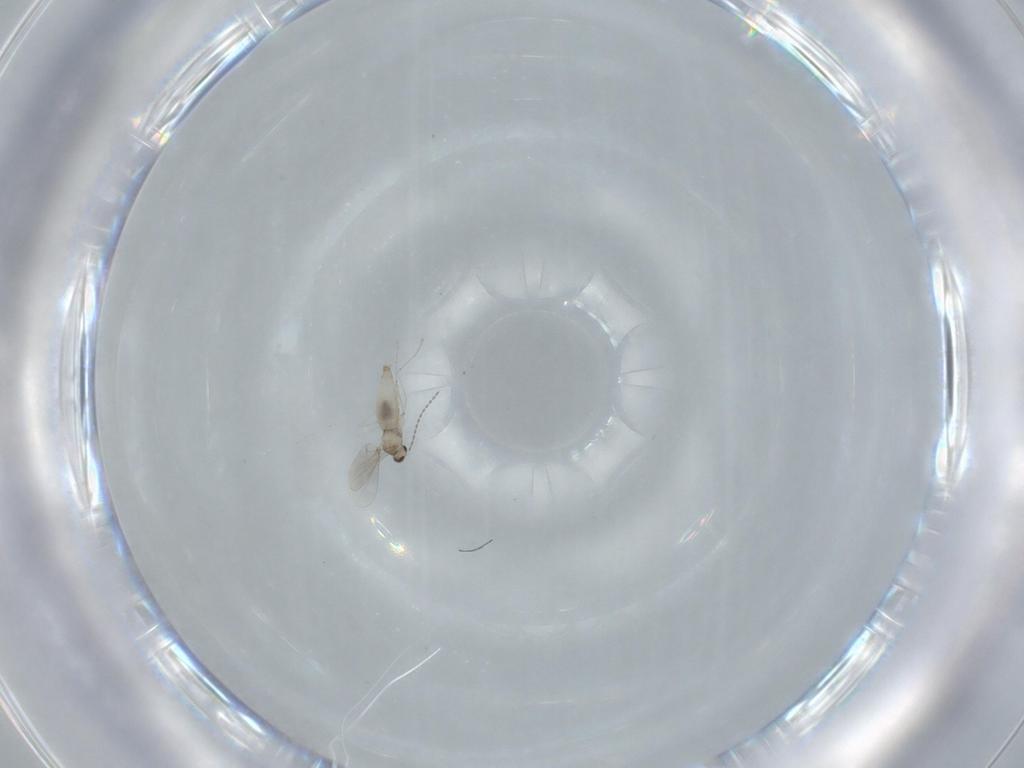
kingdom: Animalia
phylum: Arthropoda
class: Insecta
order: Diptera
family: Cecidomyiidae
